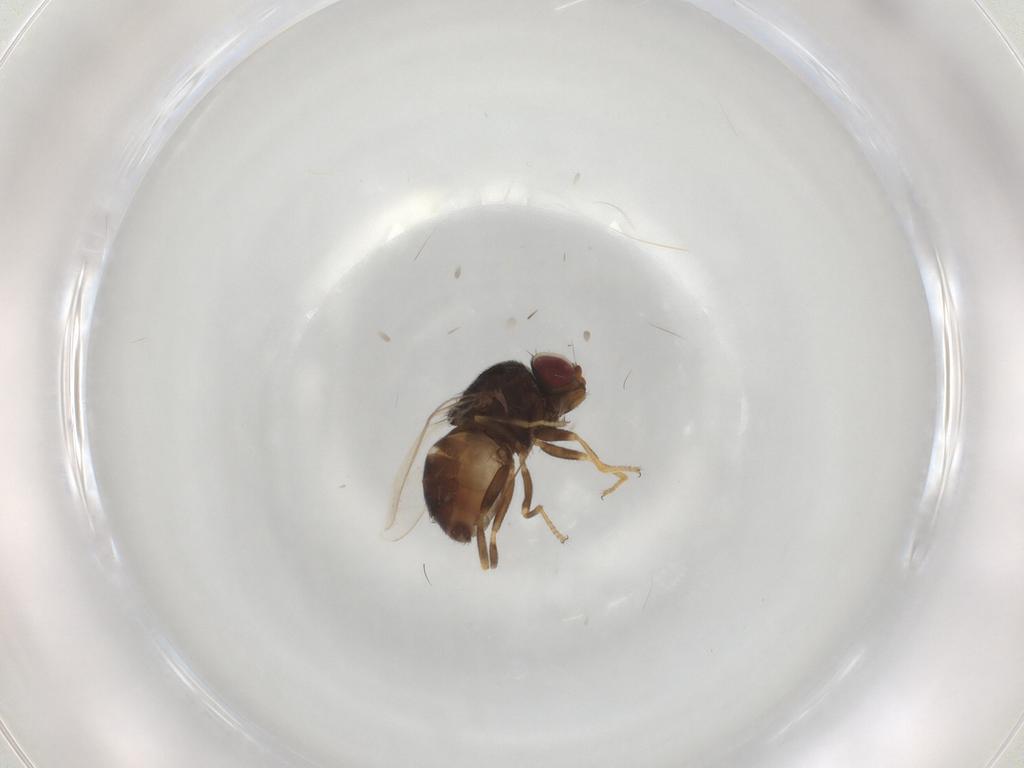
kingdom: Animalia
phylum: Arthropoda
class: Insecta
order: Diptera
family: Chloropidae
